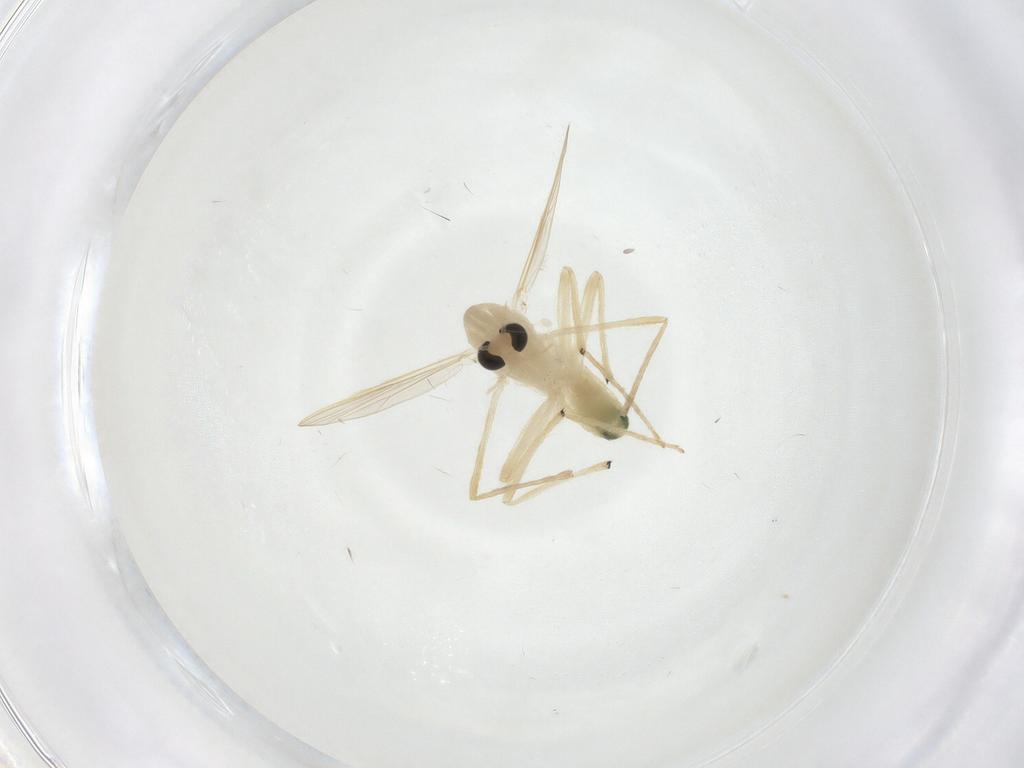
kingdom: Animalia
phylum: Arthropoda
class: Insecta
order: Diptera
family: Chironomidae
